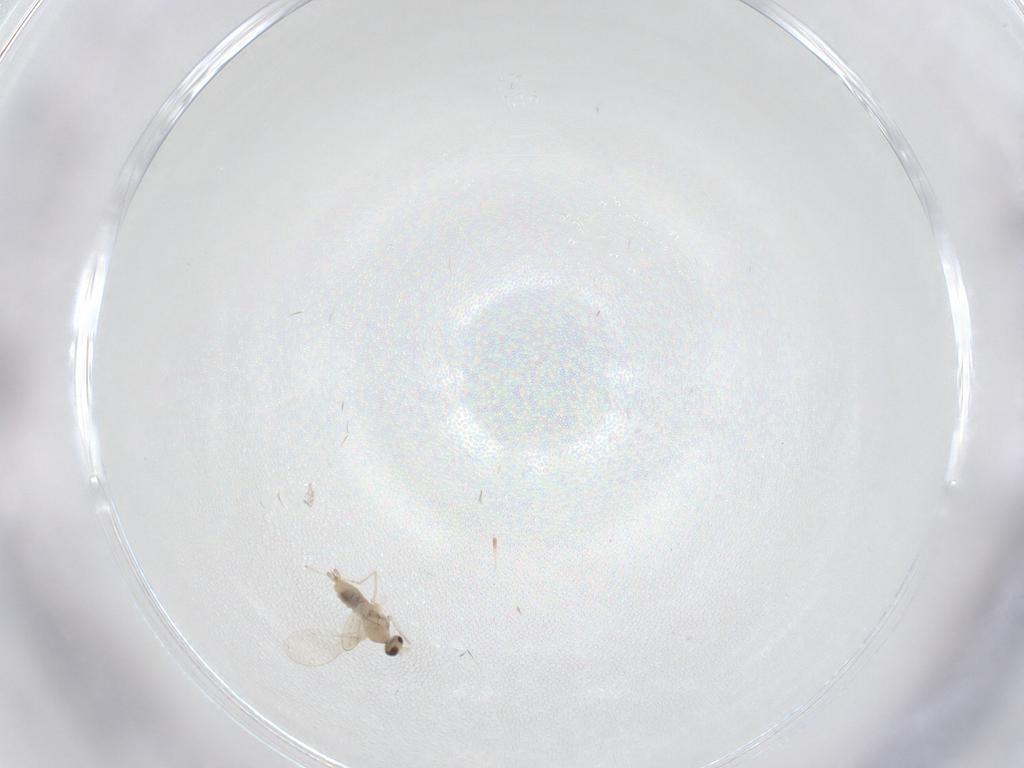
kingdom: Animalia
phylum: Arthropoda
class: Insecta
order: Diptera
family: Cecidomyiidae
